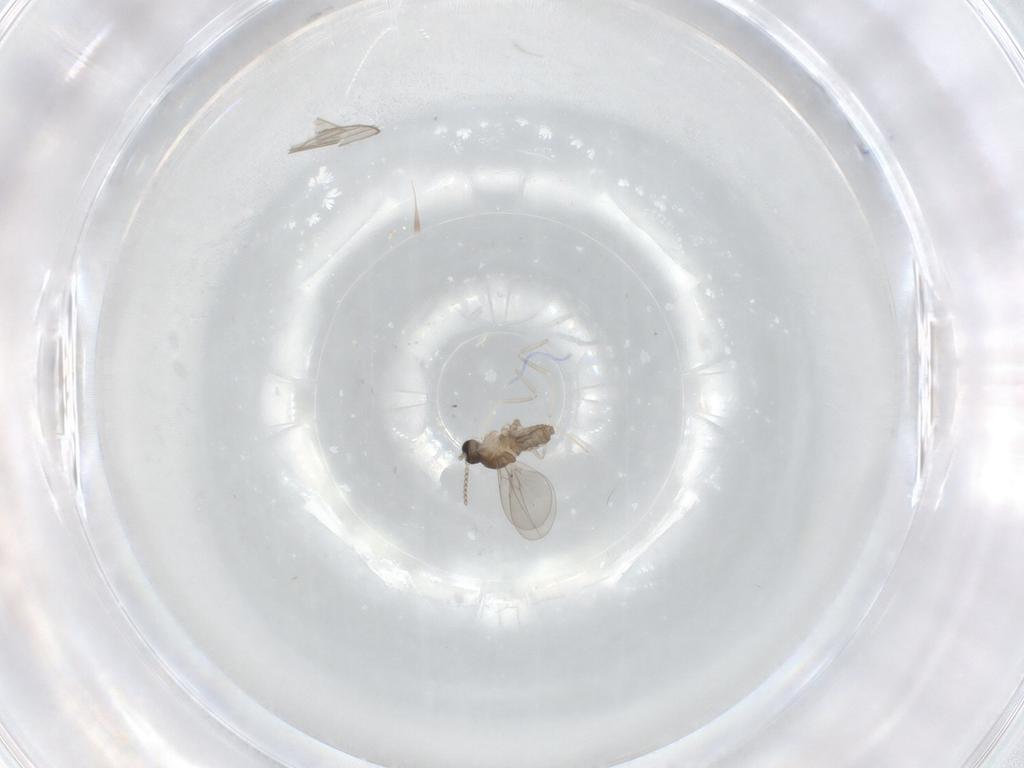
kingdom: Animalia
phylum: Arthropoda
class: Insecta
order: Diptera
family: Cecidomyiidae
